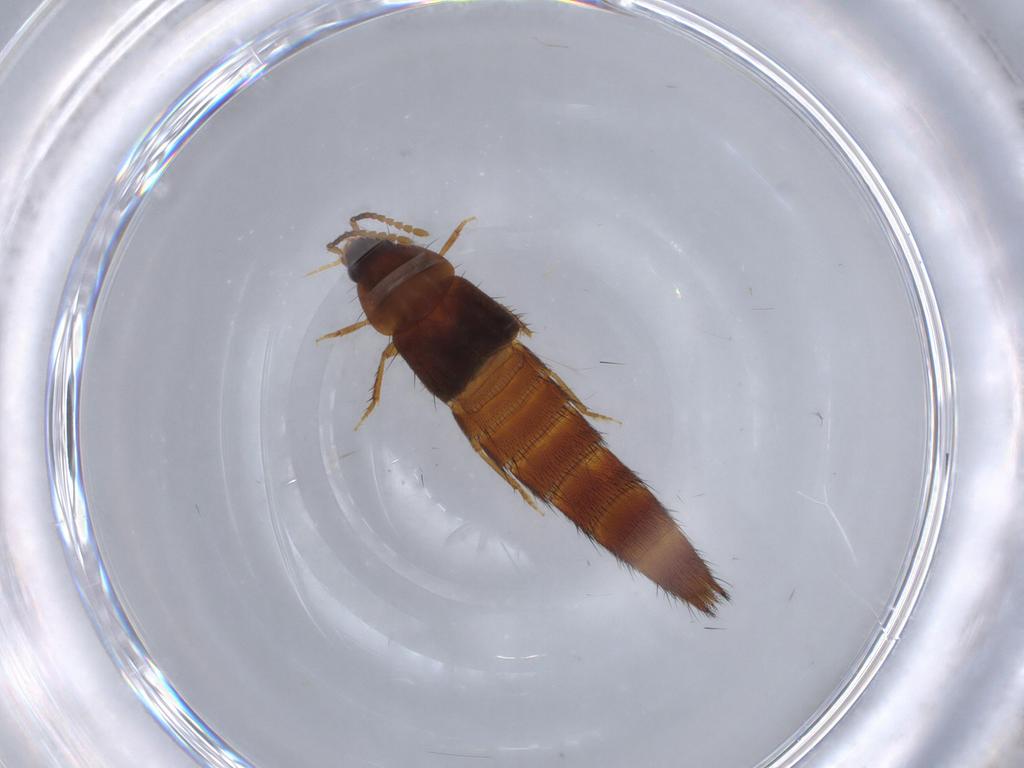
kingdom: Animalia
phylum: Arthropoda
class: Insecta
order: Coleoptera
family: Staphylinidae
